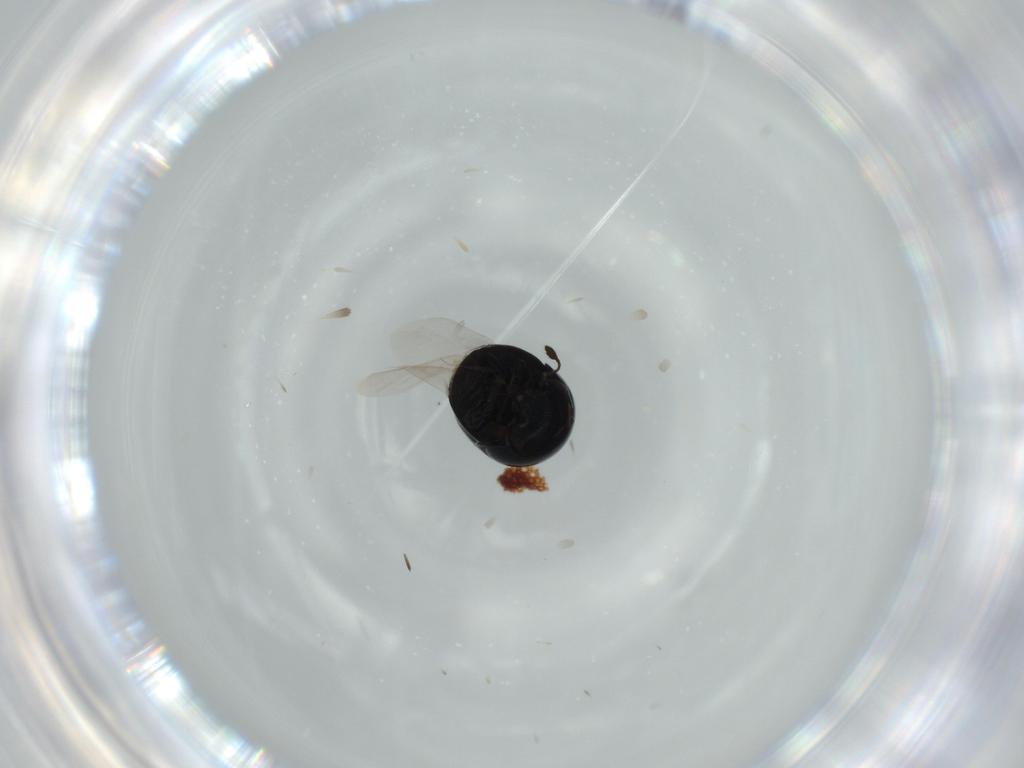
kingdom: Animalia
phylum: Arthropoda
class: Insecta
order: Coleoptera
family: Cybocephalidae
